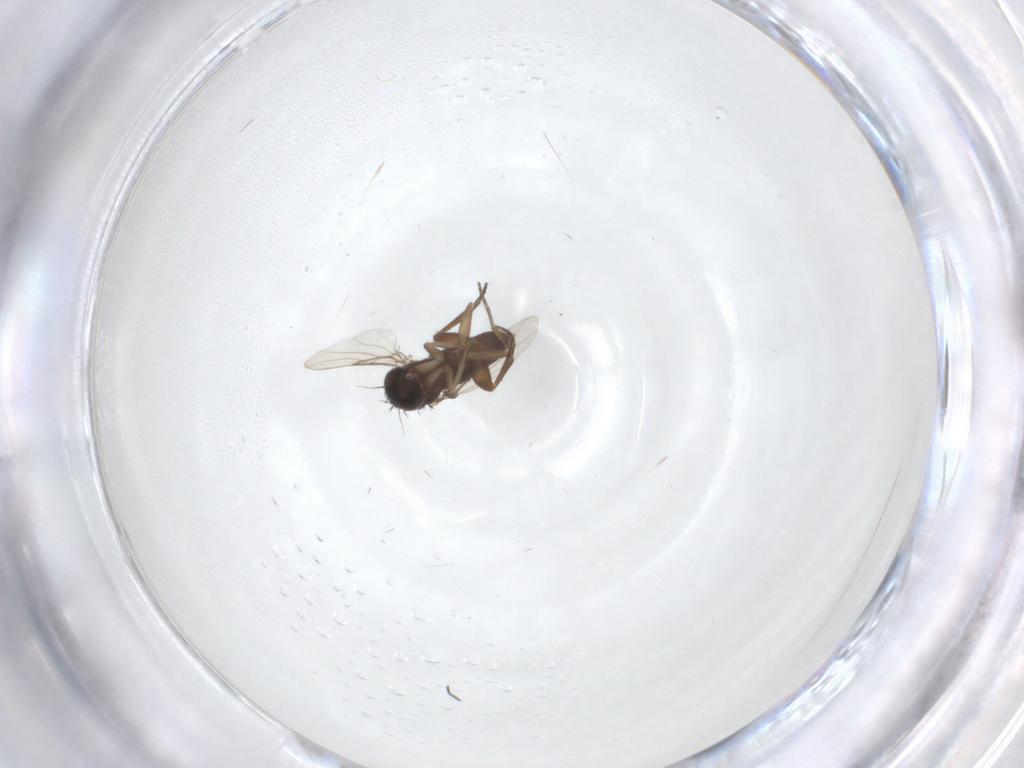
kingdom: Animalia
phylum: Arthropoda
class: Insecta
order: Diptera
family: Phoridae
